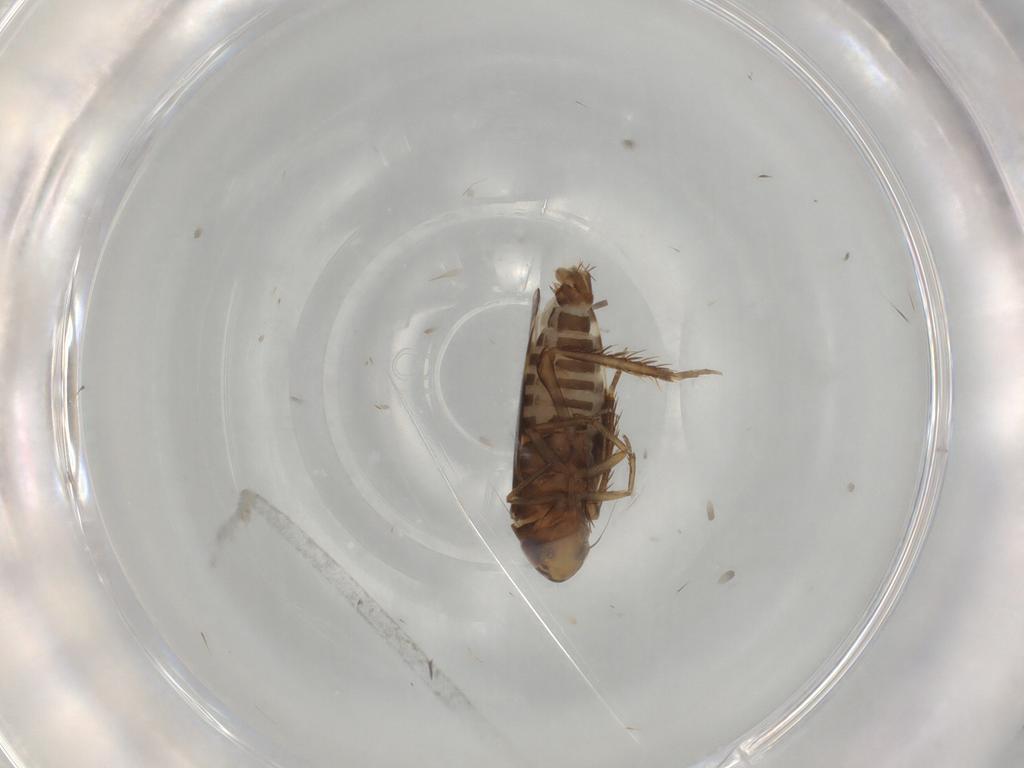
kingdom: Animalia
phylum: Arthropoda
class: Insecta
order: Hemiptera
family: Cicadellidae
